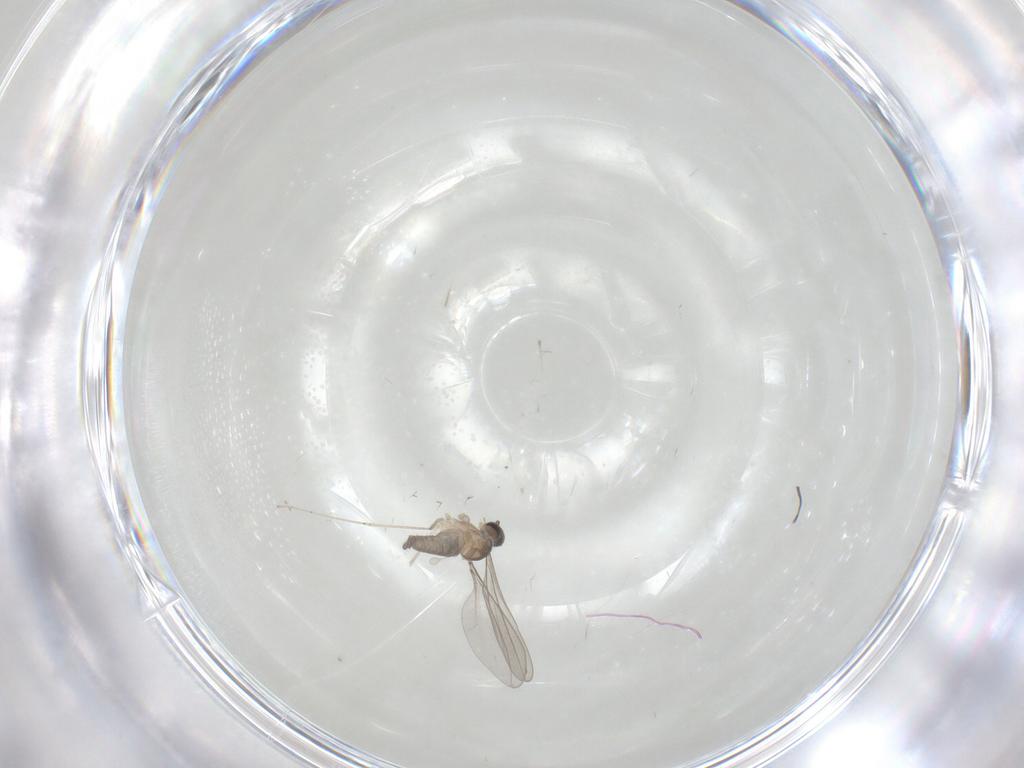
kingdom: Animalia
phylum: Arthropoda
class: Insecta
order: Diptera
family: Cecidomyiidae
